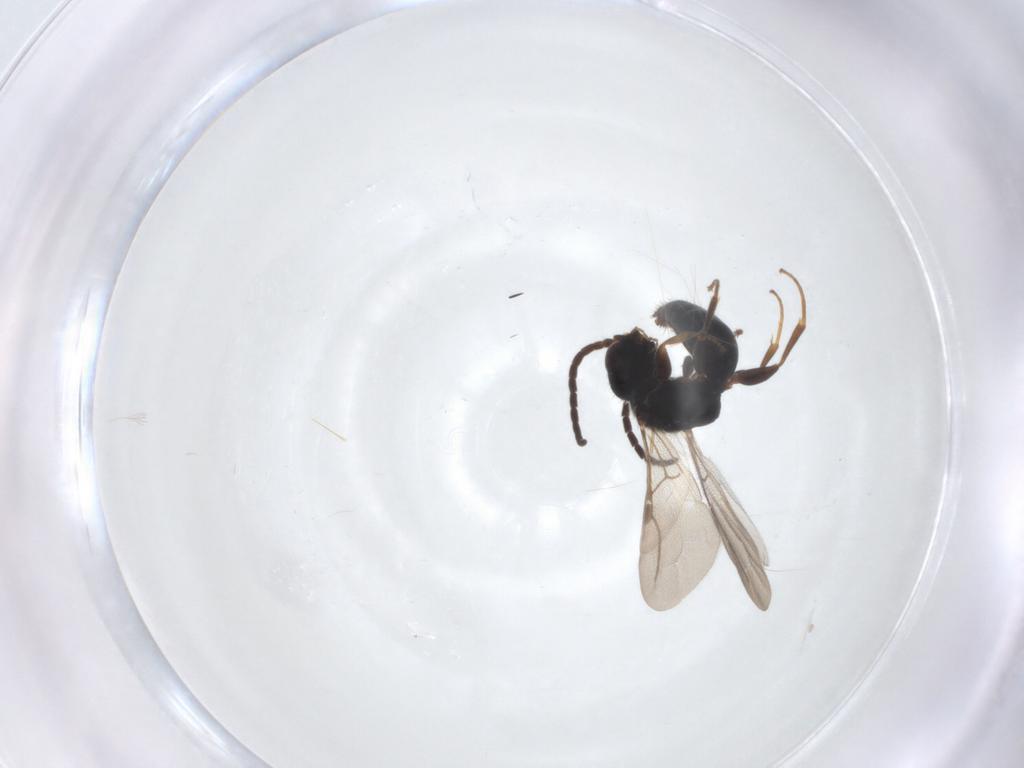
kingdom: Animalia
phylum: Arthropoda
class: Insecta
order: Hymenoptera
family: Bethylidae
